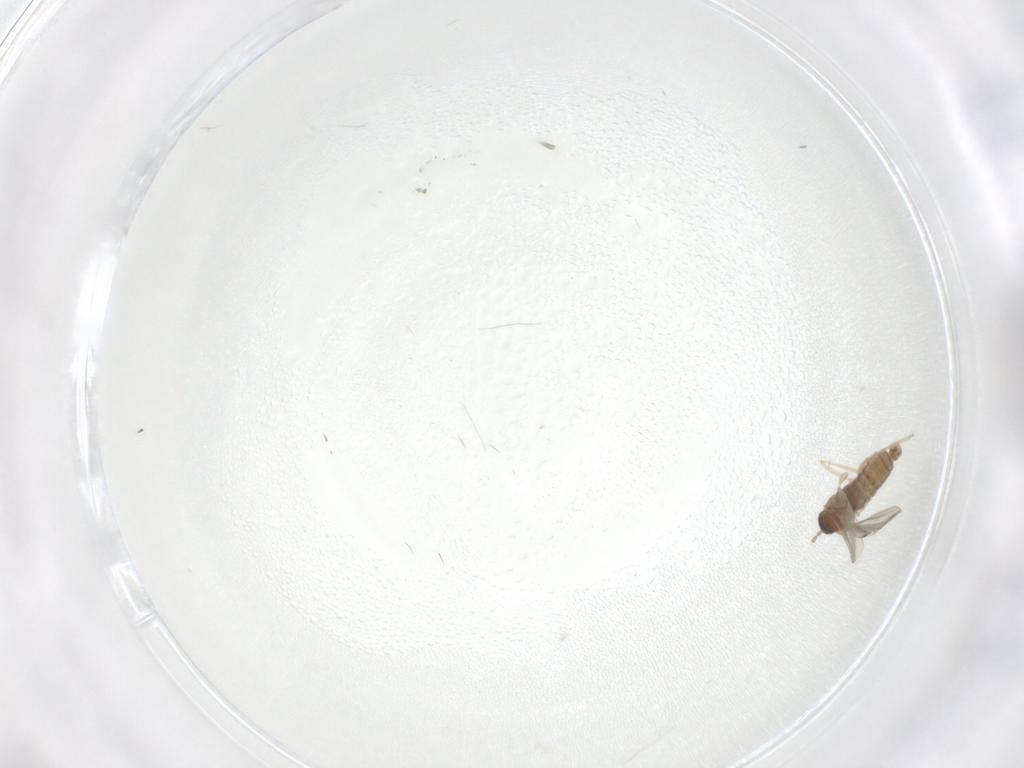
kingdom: Animalia
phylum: Arthropoda
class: Insecta
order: Diptera
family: Cecidomyiidae
